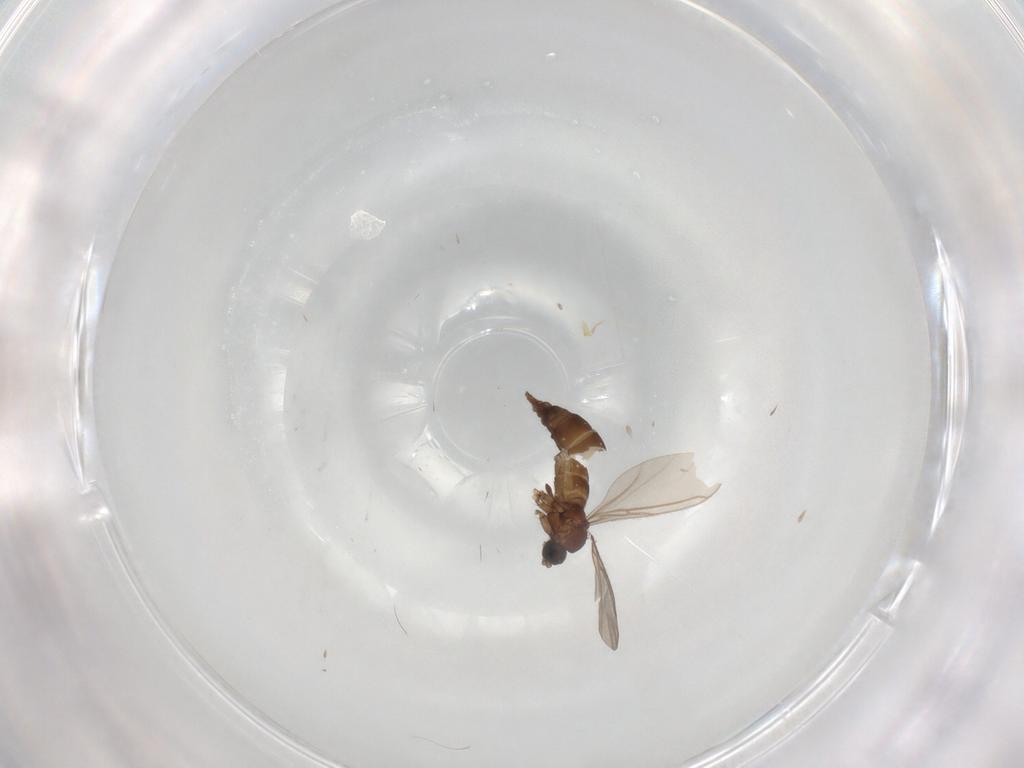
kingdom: Animalia
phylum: Arthropoda
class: Insecta
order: Diptera
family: Sciaridae
